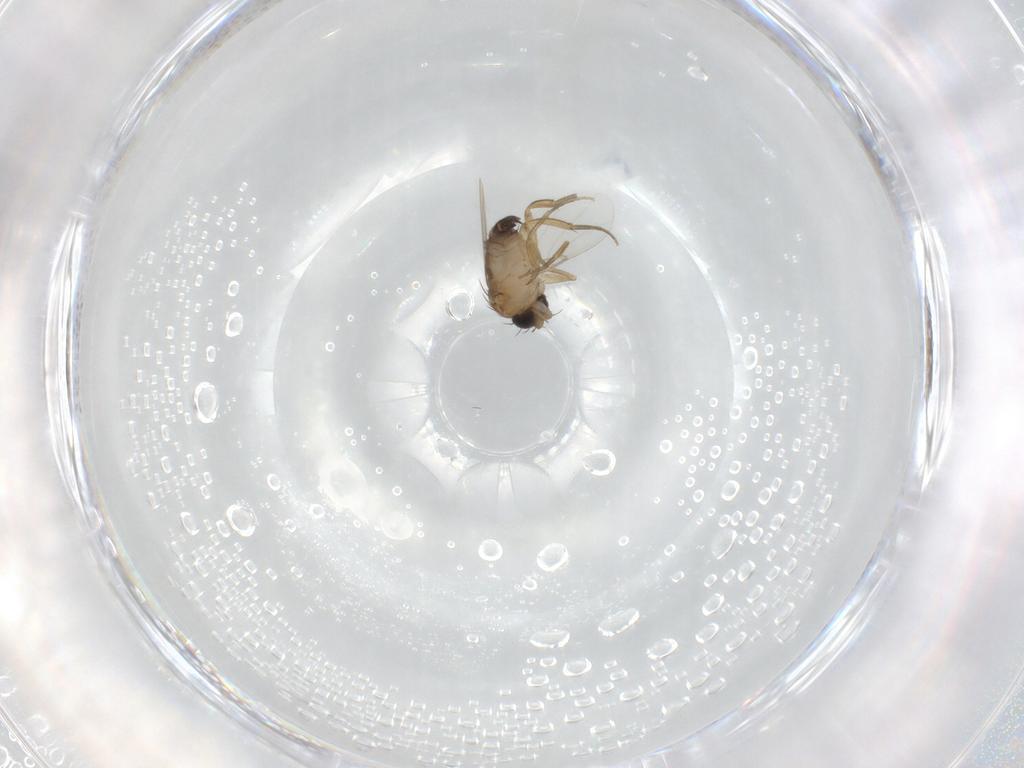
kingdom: Animalia
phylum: Arthropoda
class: Insecta
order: Diptera
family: Phoridae
